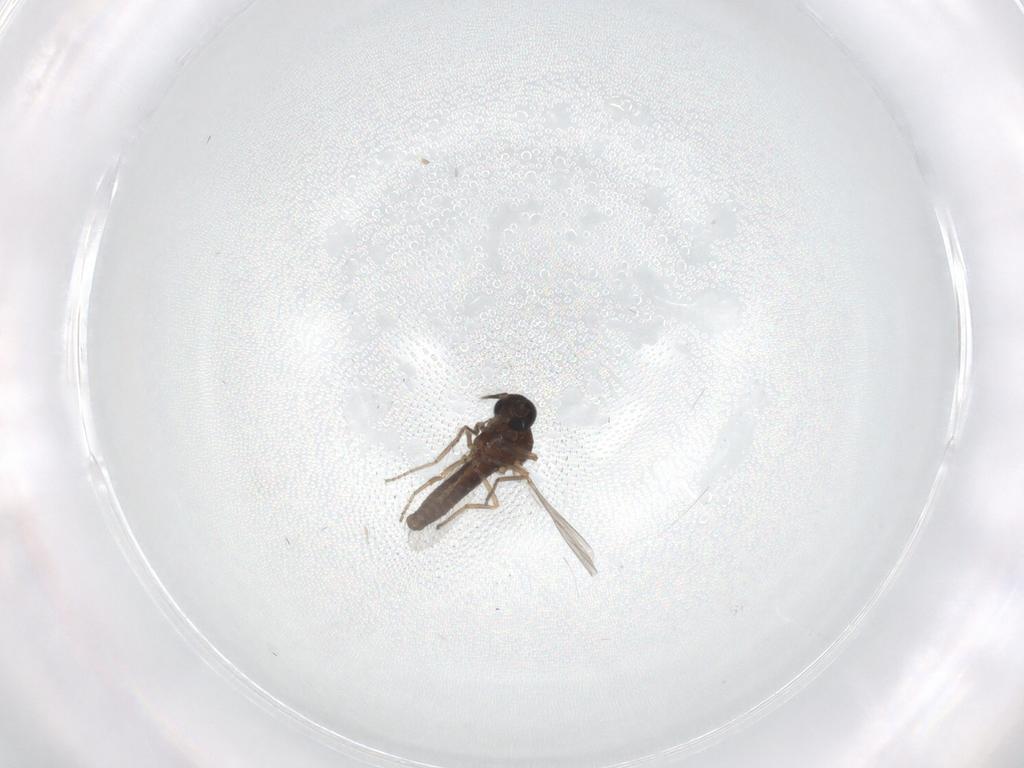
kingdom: Animalia
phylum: Arthropoda
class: Insecta
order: Diptera
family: Ceratopogonidae
